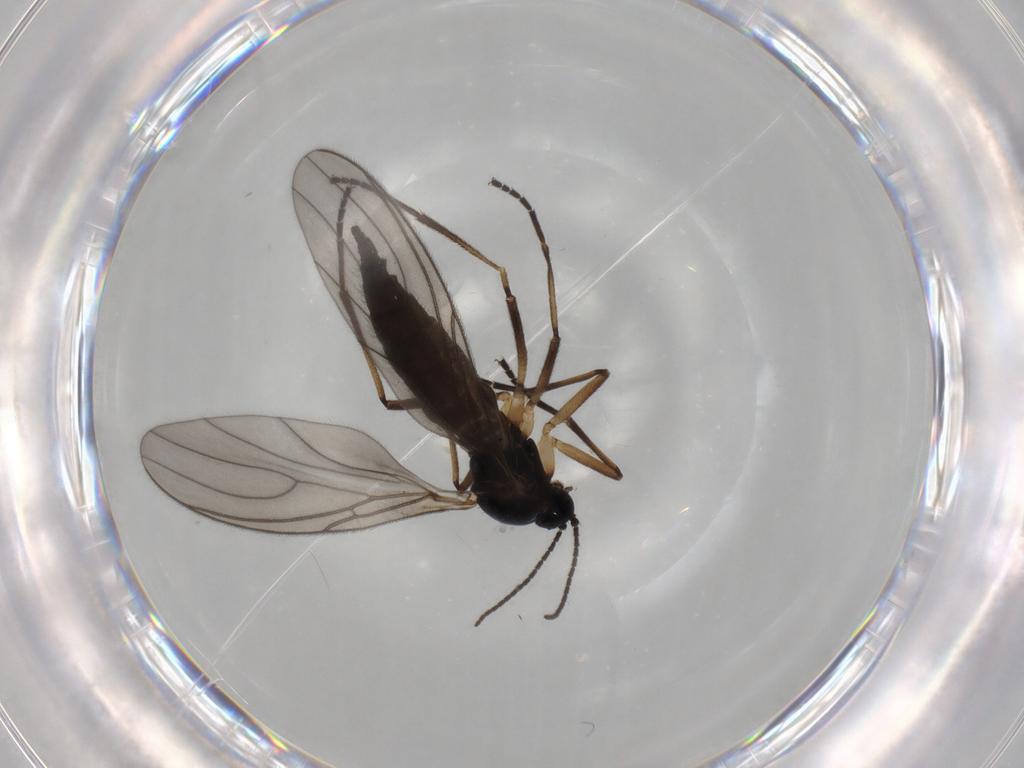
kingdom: Animalia
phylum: Arthropoda
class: Insecta
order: Diptera
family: Sciaridae
